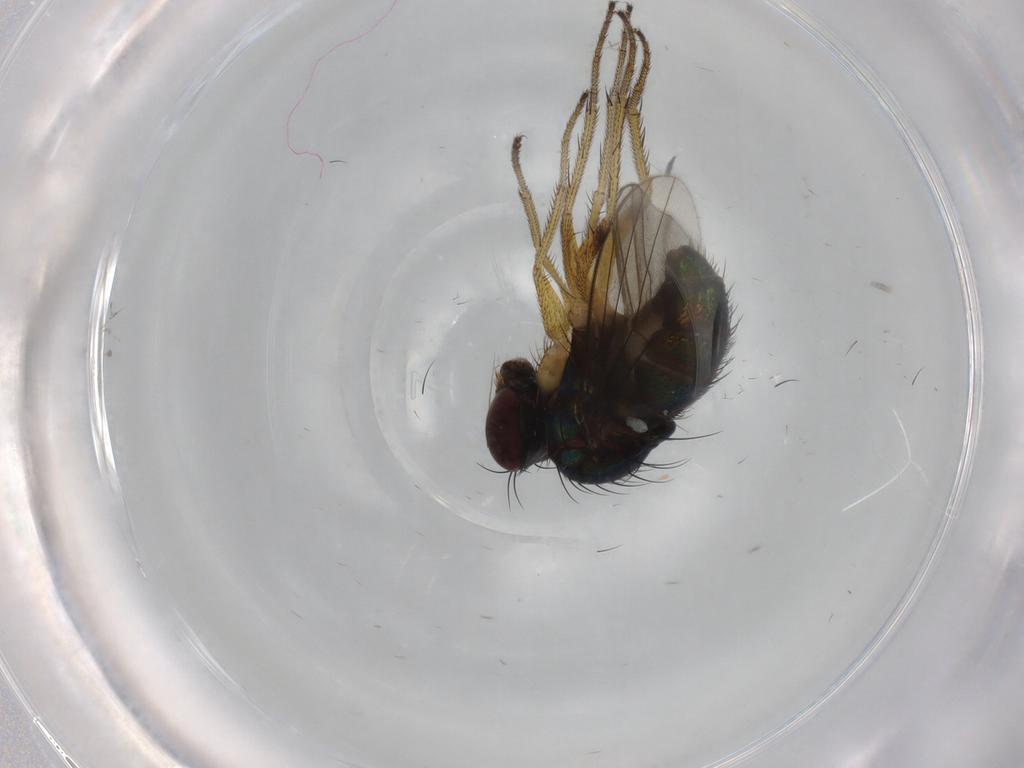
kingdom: Animalia
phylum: Arthropoda
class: Insecta
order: Diptera
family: Dolichopodidae
